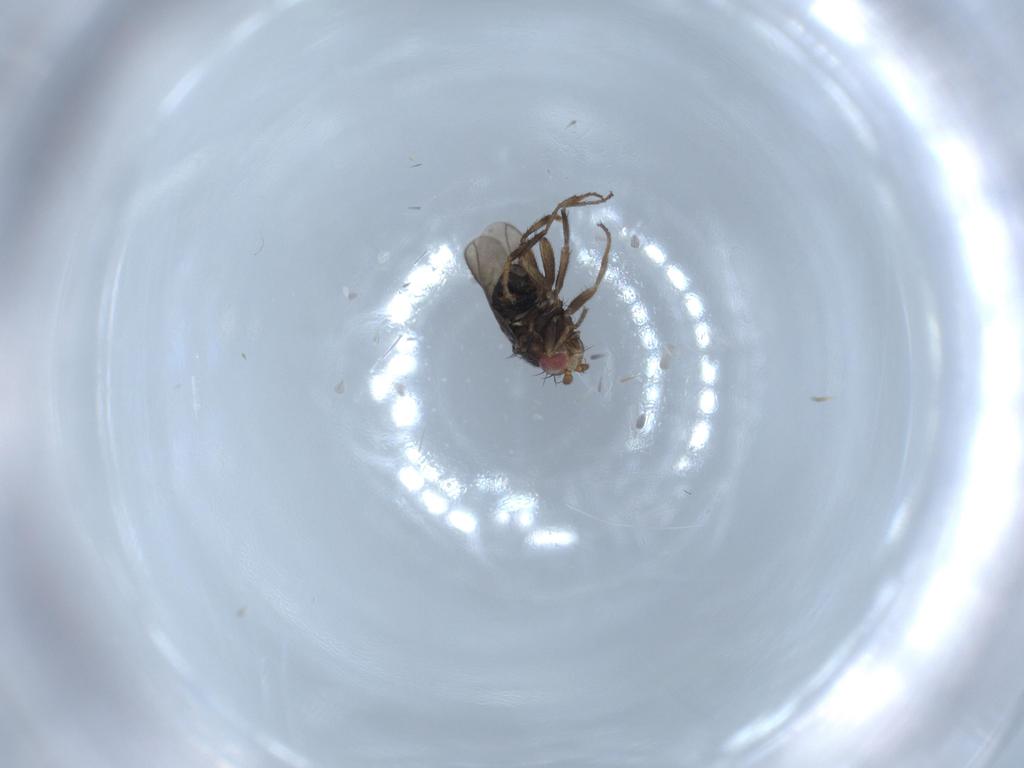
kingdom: Animalia
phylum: Arthropoda
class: Insecta
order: Diptera
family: Sphaeroceridae
